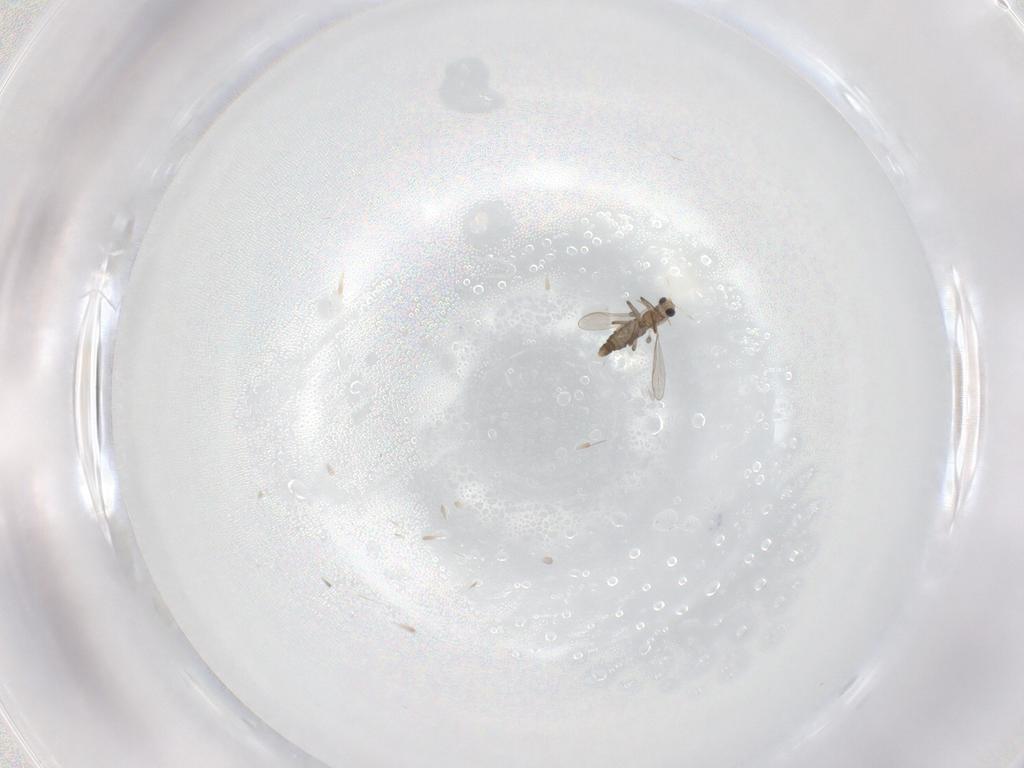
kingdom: Animalia
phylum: Arthropoda
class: Insecta
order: Diptera
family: Chironomidae
